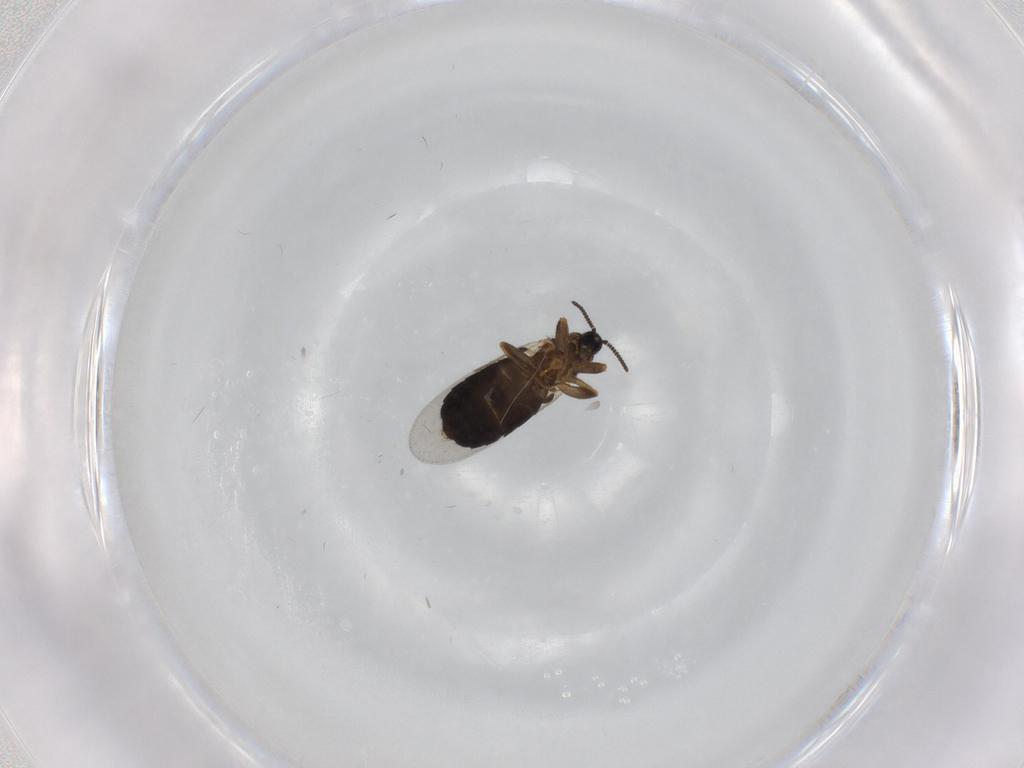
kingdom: Animalia
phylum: Arthropoda
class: Insecta
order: Diptera
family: Scatopsidae
